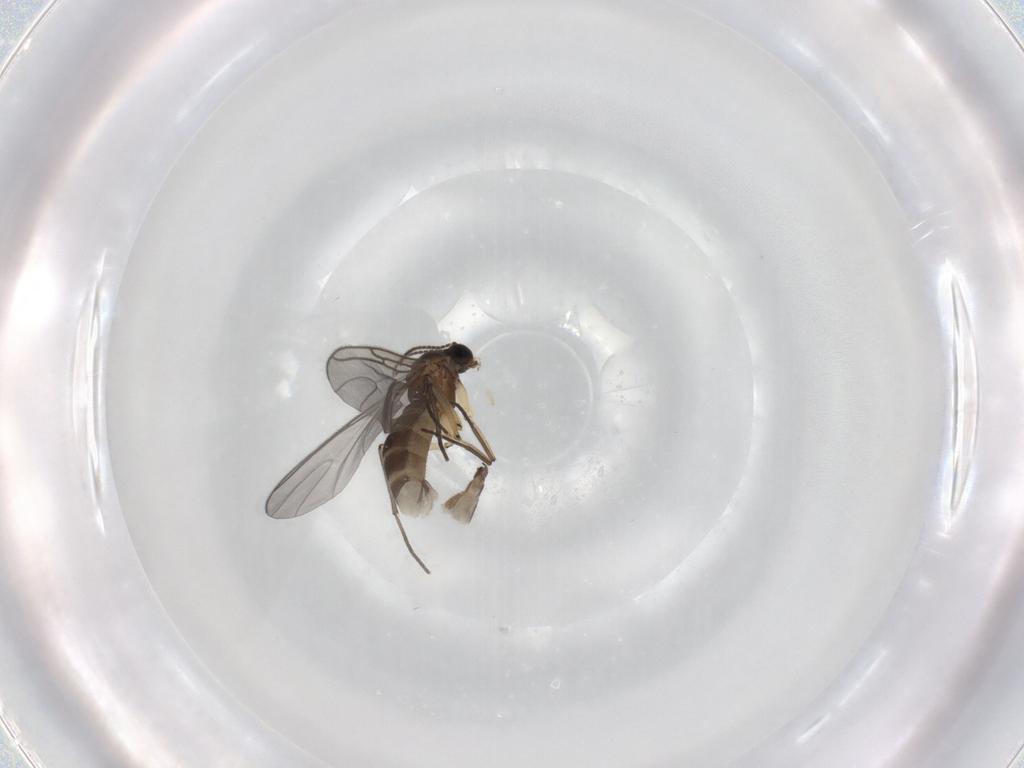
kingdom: Animalia
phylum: Arthropoda
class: Insecta
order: Diptera
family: Sciaridae
